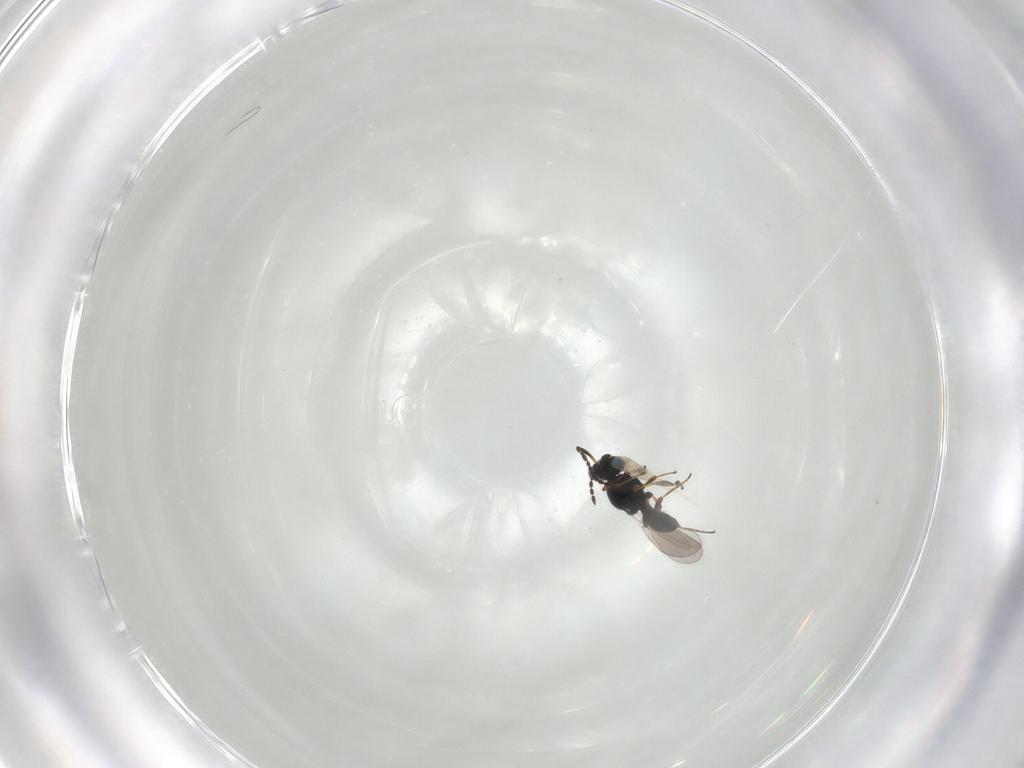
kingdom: Animalia
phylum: Arthropoda
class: Insecta
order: Hymenoptera
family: Platygastridae
